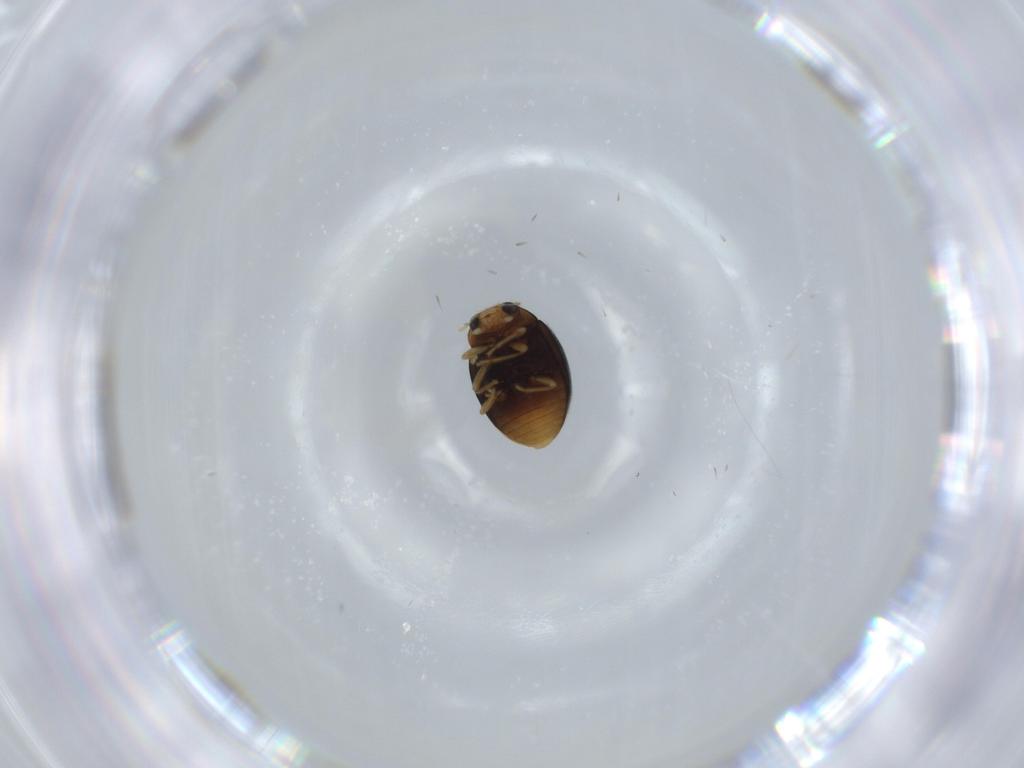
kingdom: Animalia
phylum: Arthropoda
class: Insecta
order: Coleoptera
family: Coccinellidae
